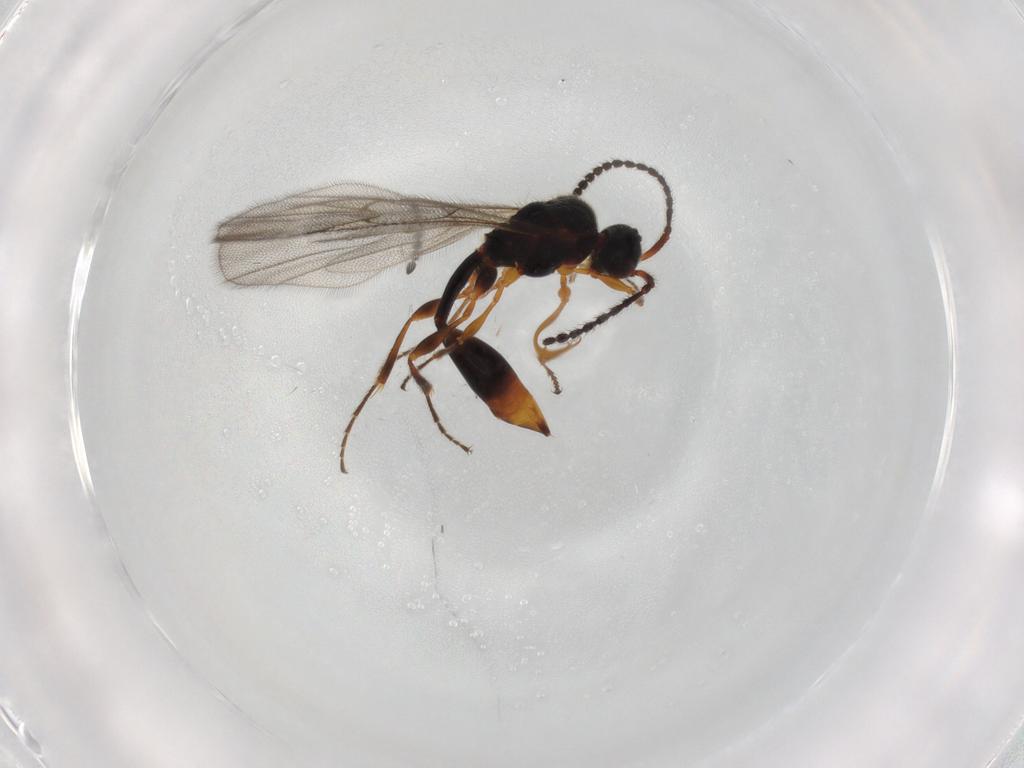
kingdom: Animalia
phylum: Arthropoda
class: Insecta
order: Hymenoptera
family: Diapriidae
